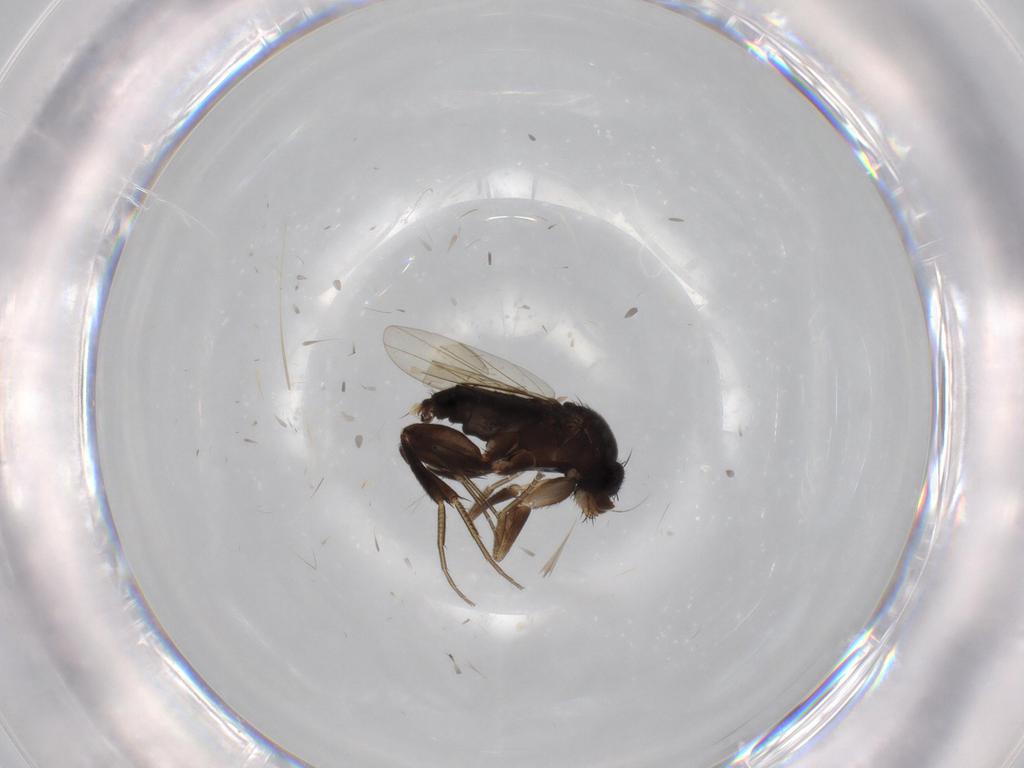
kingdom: Animalia
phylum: Arthropoda
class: Insecta
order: Diptera
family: Chironomidae
